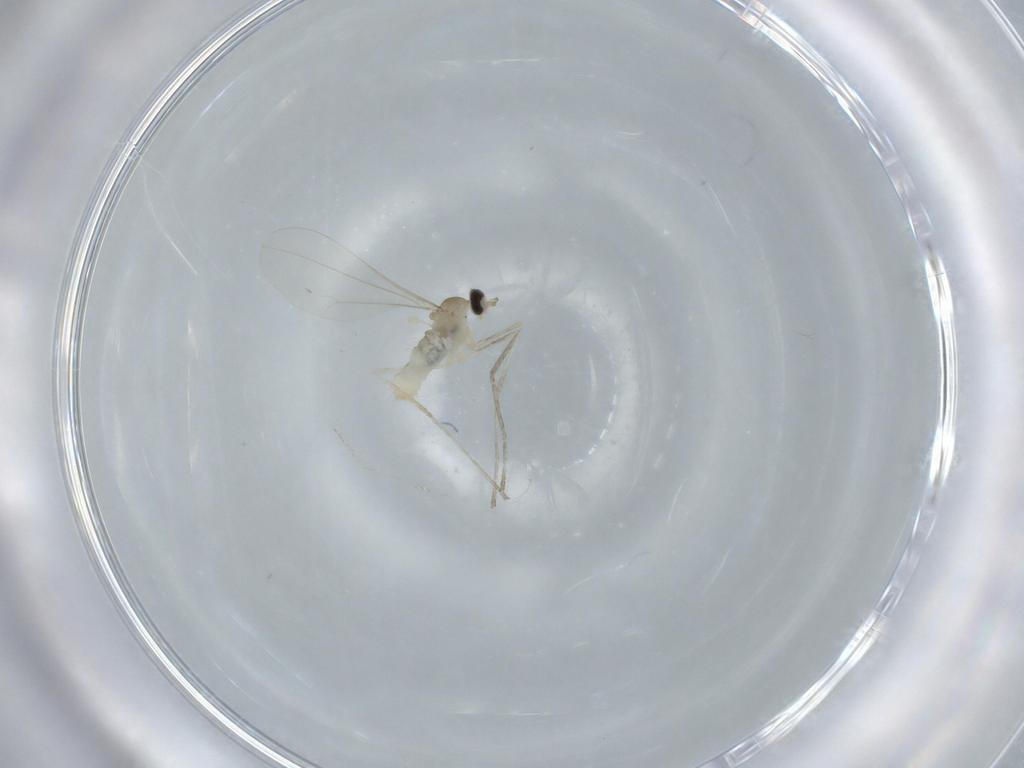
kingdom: Animalia
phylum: Arthropoda
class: Insecta
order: Diptera
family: Cecidomyiidae
